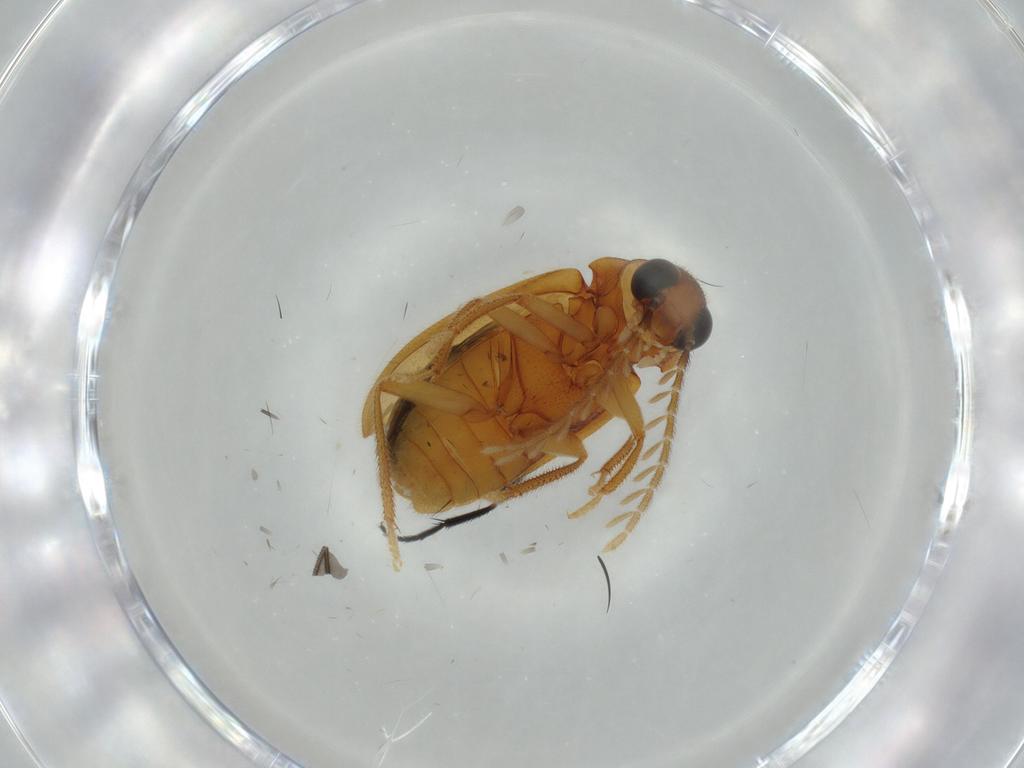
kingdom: Animalia
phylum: Arthropoda
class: Insecta
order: Coleoptera
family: Ptilodactylidae
